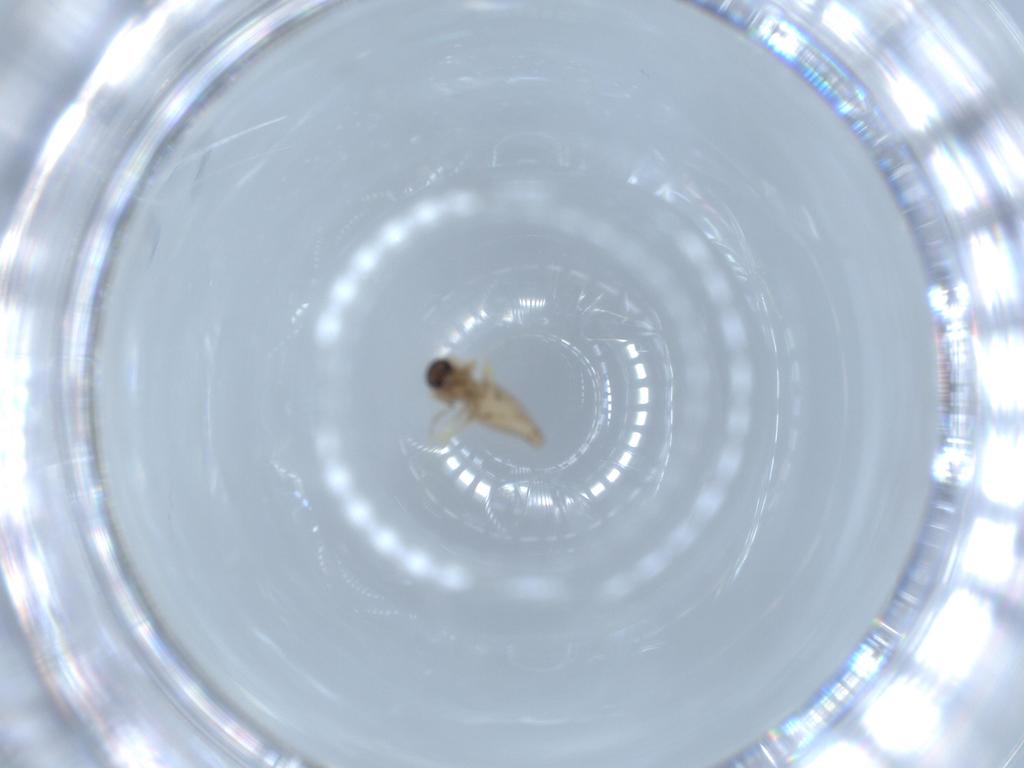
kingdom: Animalia
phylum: Arthropoda
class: Insecta
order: Diptera
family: Ceratopogonidae
